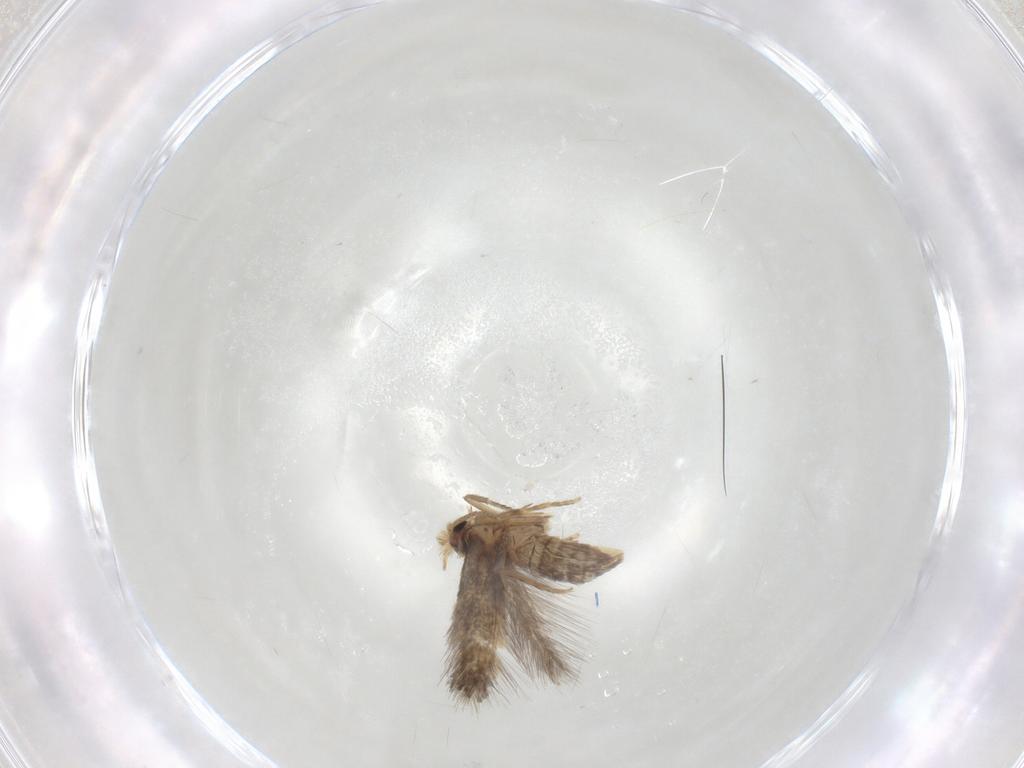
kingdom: Animalia
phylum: Arthropoda
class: Insecta
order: Lepidoptera
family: Nepticulidae
